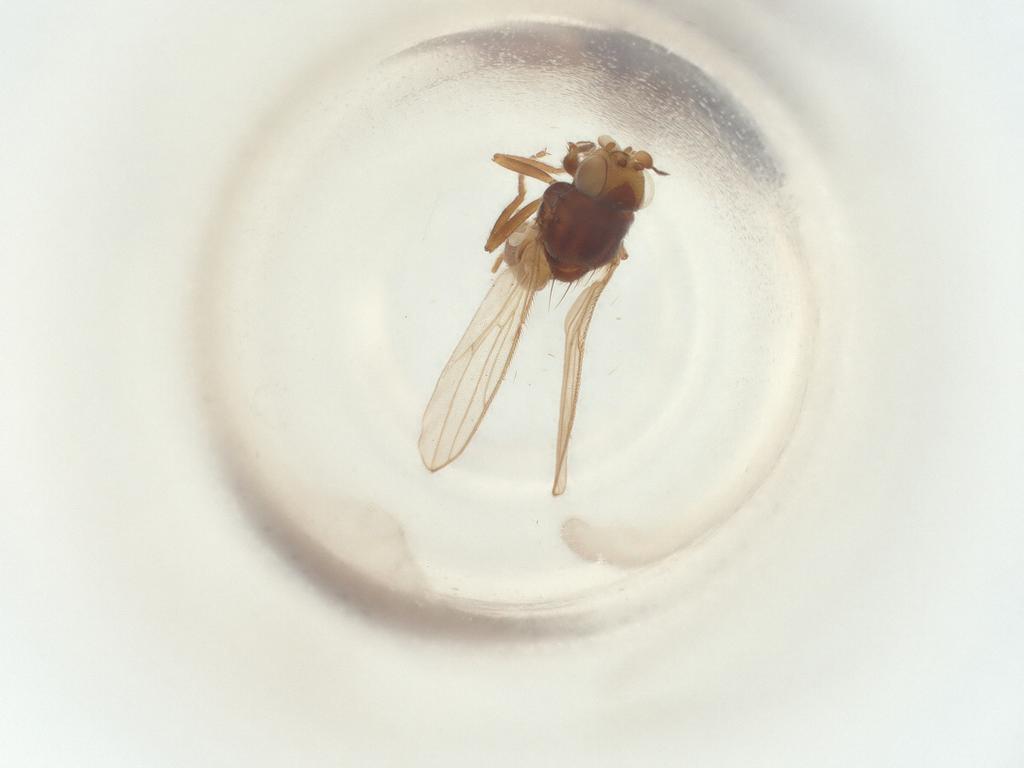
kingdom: Animalia
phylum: Arthropoda
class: Insecta
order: Diptera
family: Chloropidae
